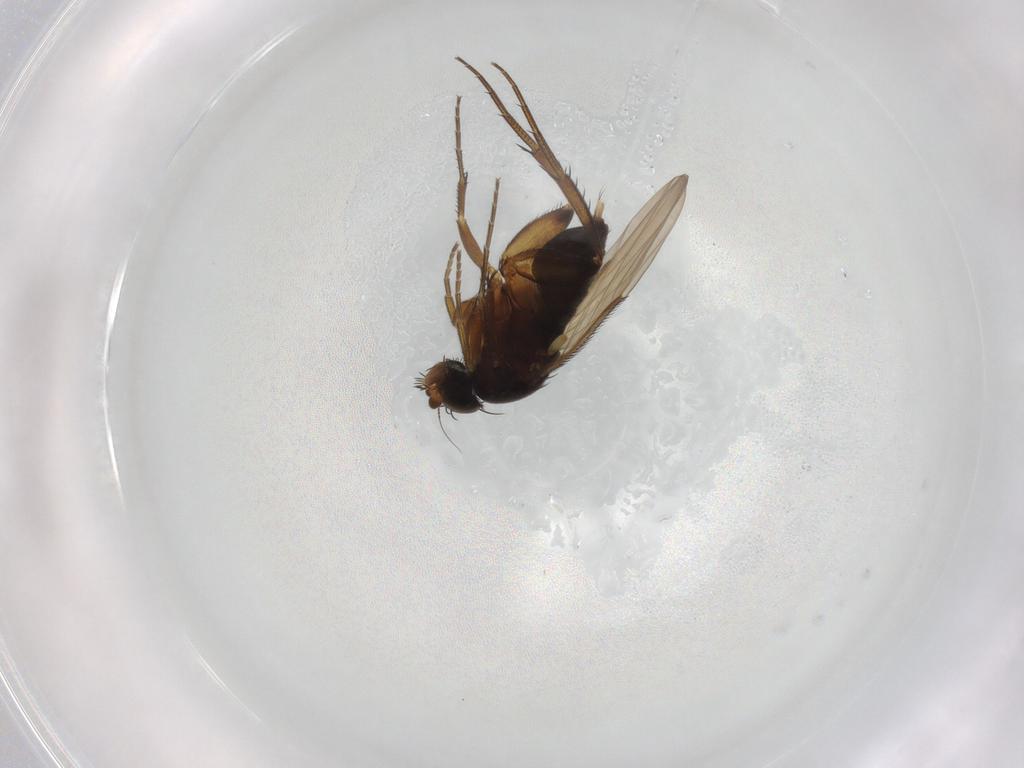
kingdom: Animalia
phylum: Arthropoda
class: Insecta
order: Diptera
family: Phoridae
